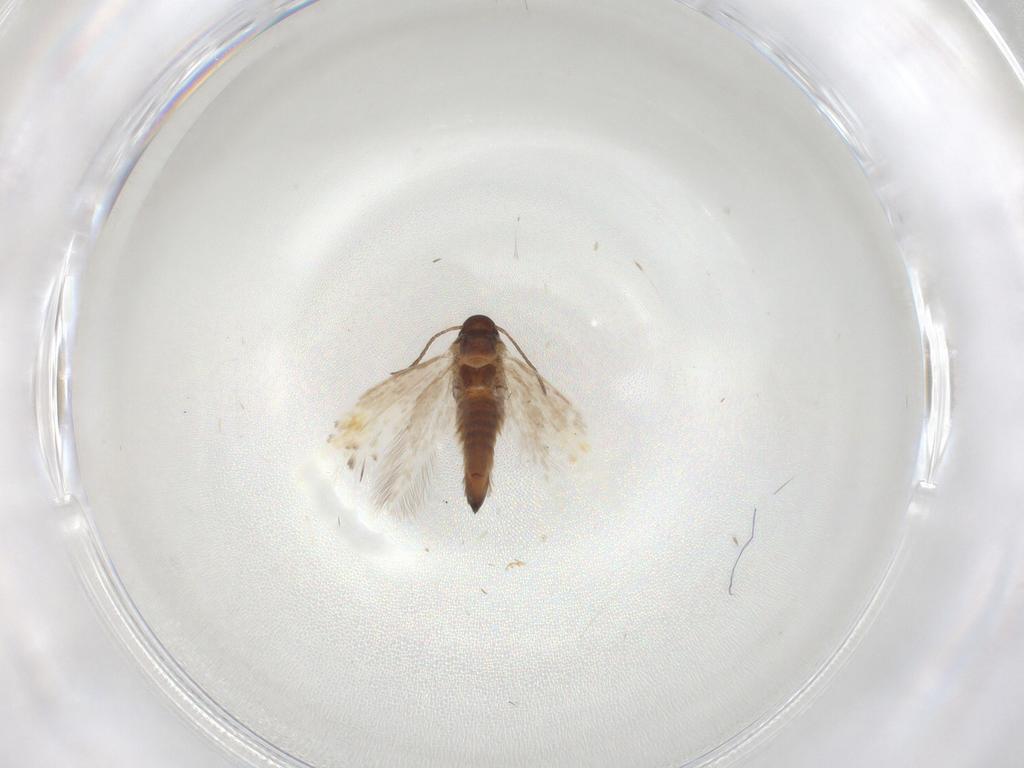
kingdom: Animalia
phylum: Arthropoda
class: Insecta
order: Lepidoptera
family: Heliozelidae
